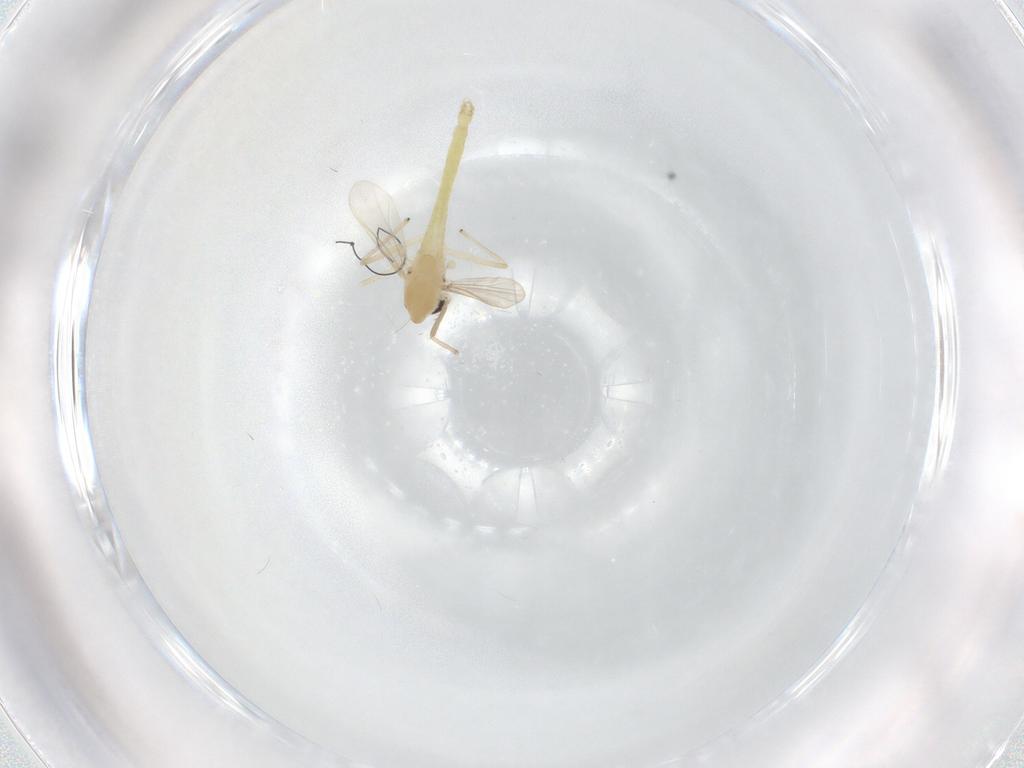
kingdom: Animalia
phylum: Arthropoda
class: Insecta
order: Diptera
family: Chironomidae
